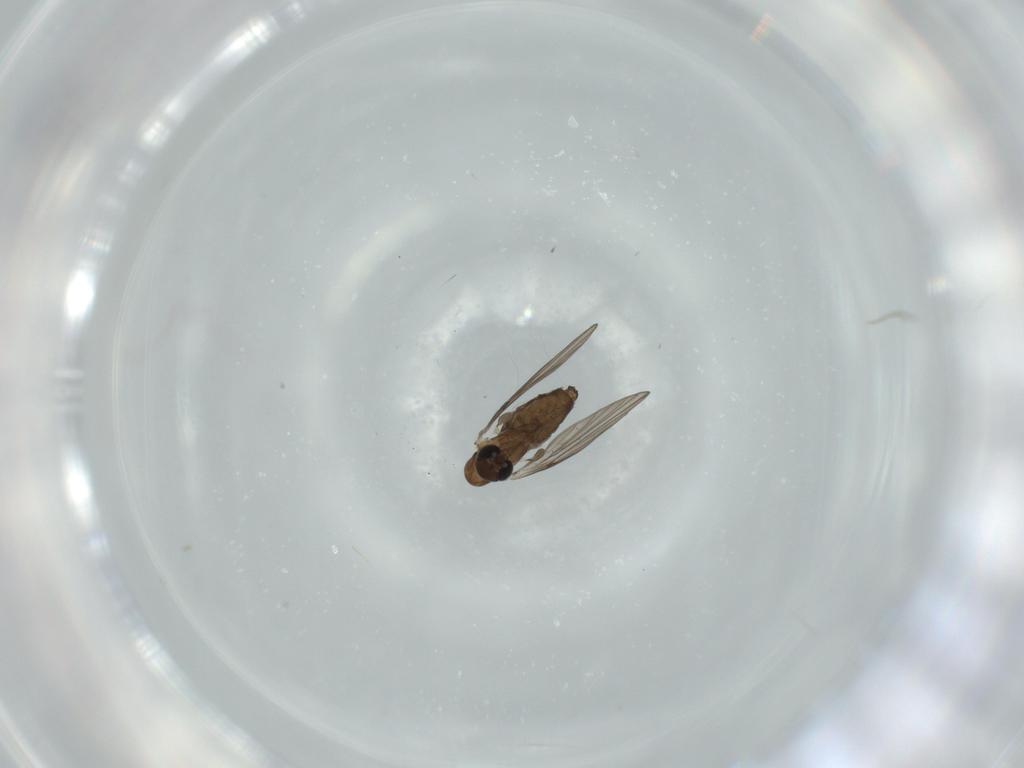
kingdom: Animalia
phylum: Arthropoda
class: Insecta
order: Diptera
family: Psychodidae
